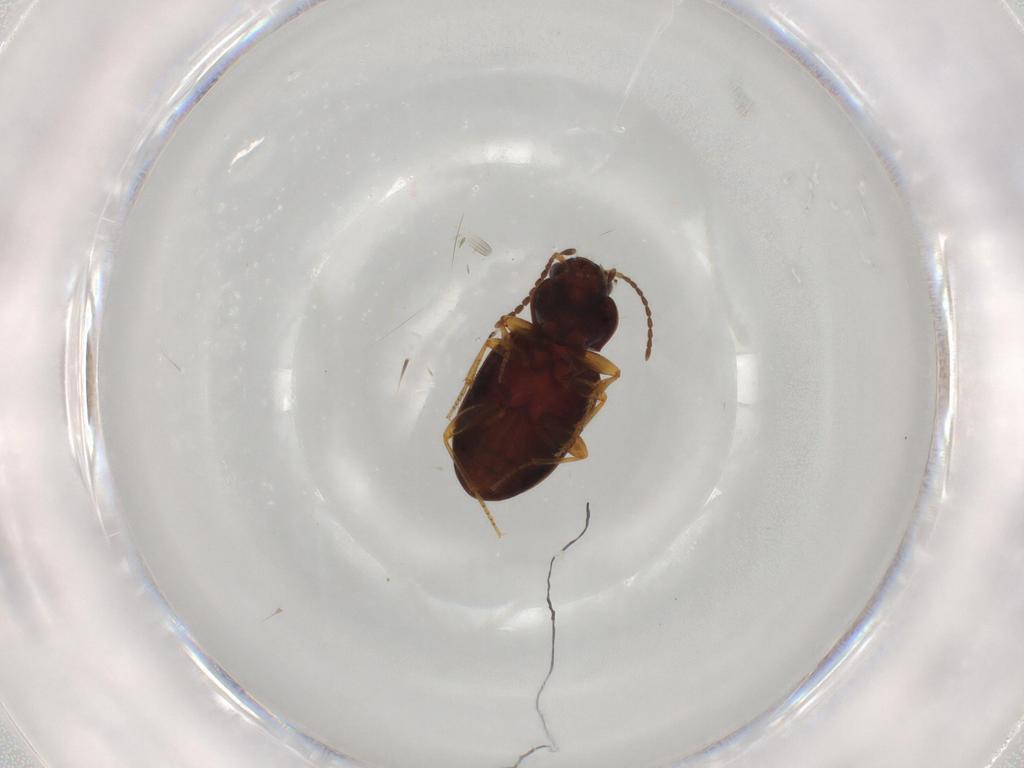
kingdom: Animalia
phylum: Arthropoda
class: Insecta
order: Coleoptera
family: Carabidae
